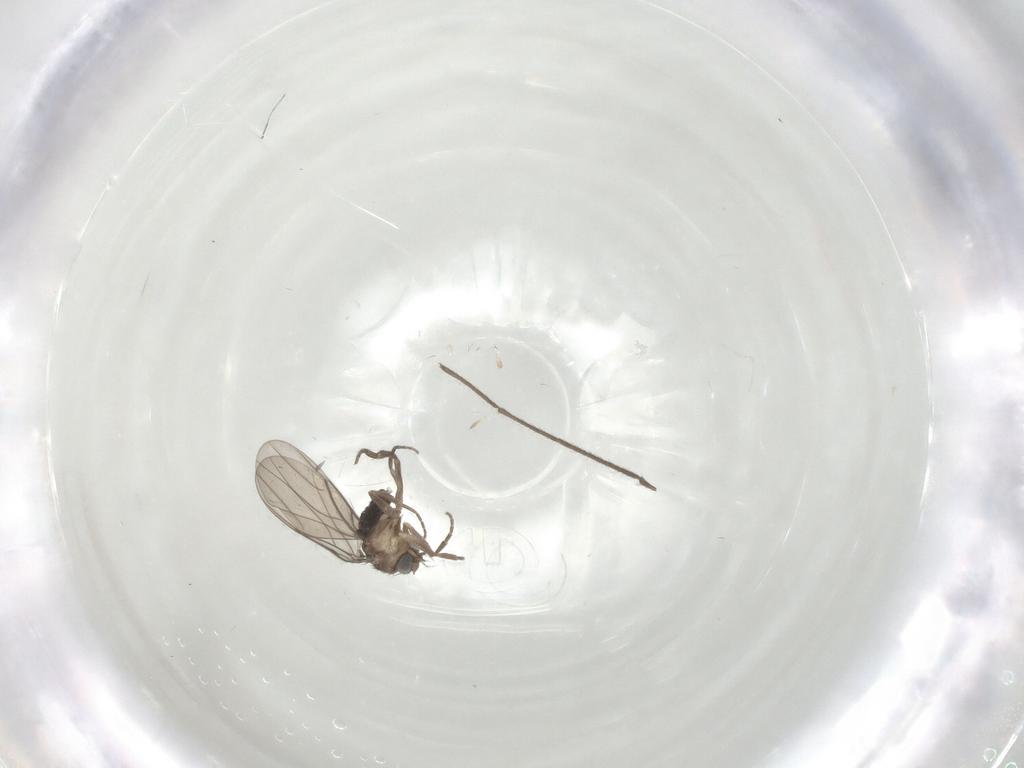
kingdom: Animalia
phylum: Arthropoda
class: Insecta
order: Diptera
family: Chironomidae
